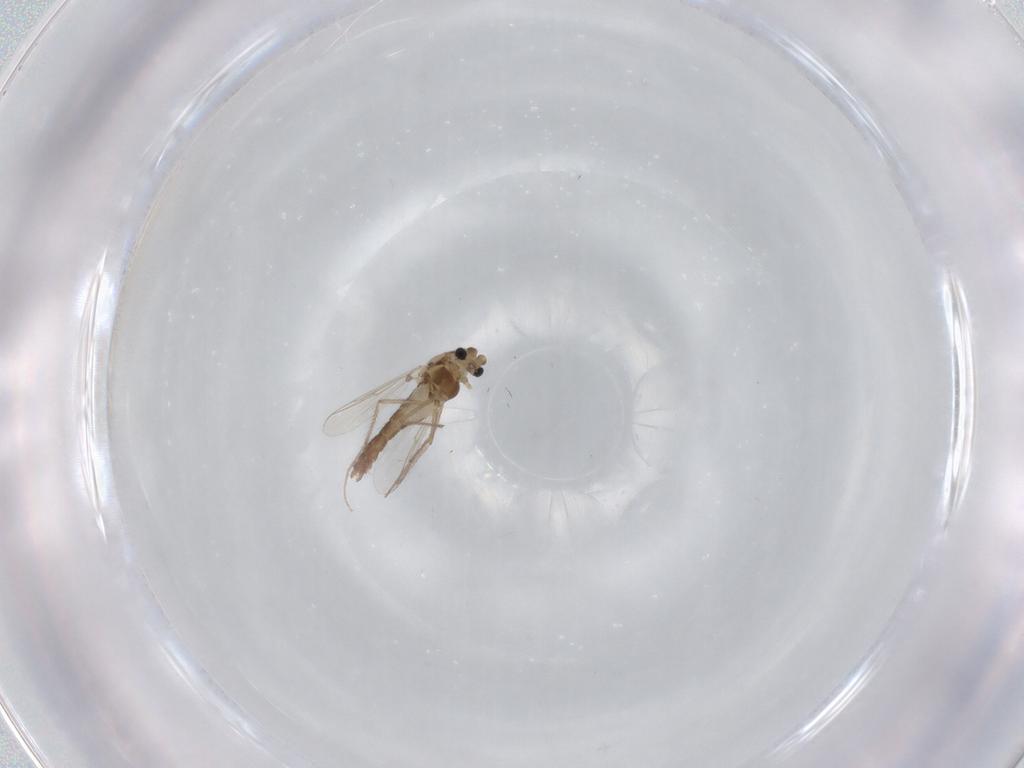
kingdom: Animalia
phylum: Arthropoda
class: Insecta
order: Diptera
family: Chironomidae
